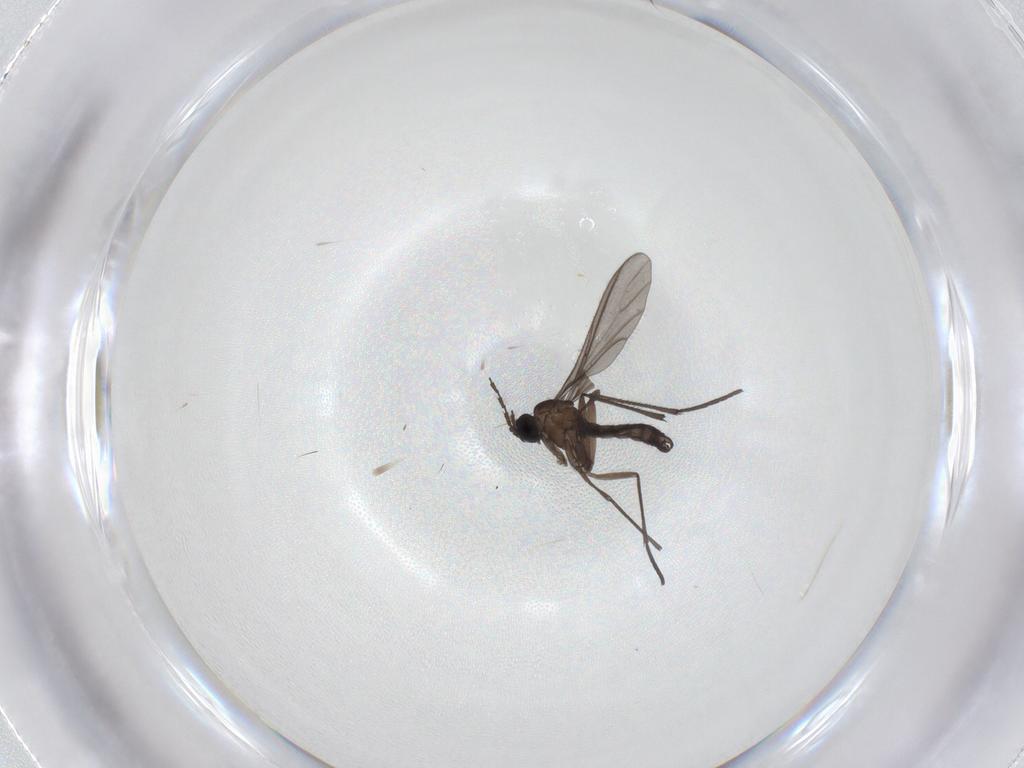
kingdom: Animalia
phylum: Arthropoda
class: Insecta
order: Diptera
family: Sciaridae
